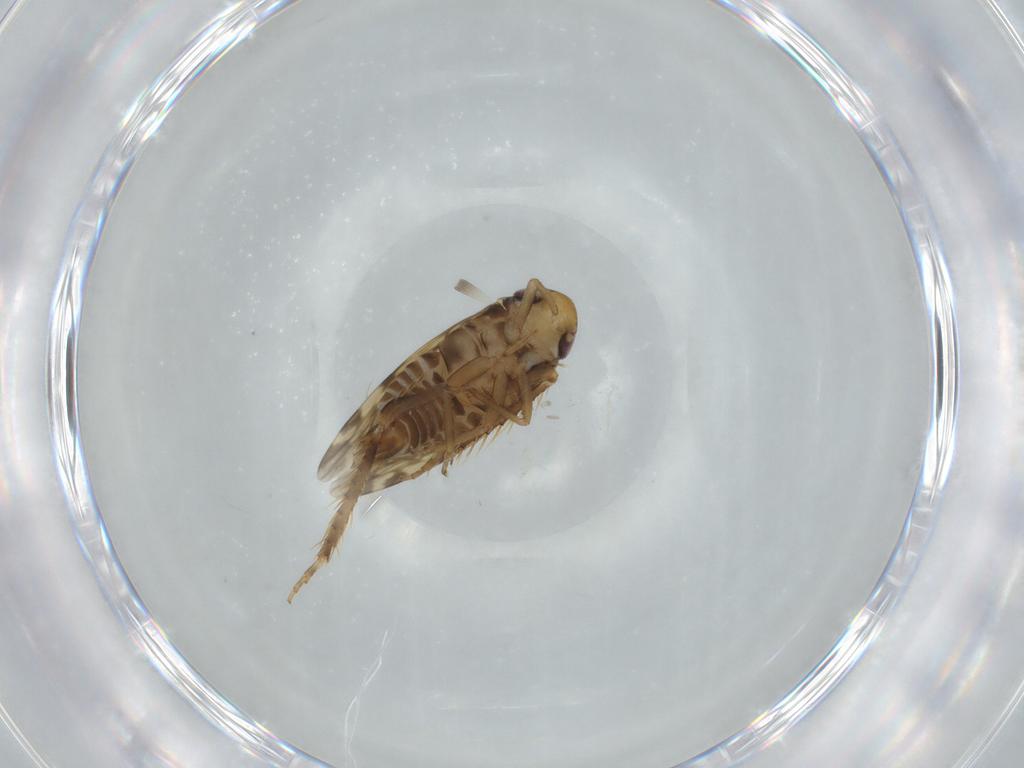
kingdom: Animalia
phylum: Arthropoda
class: Insecta
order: Hemiptera
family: Cicadellidae
